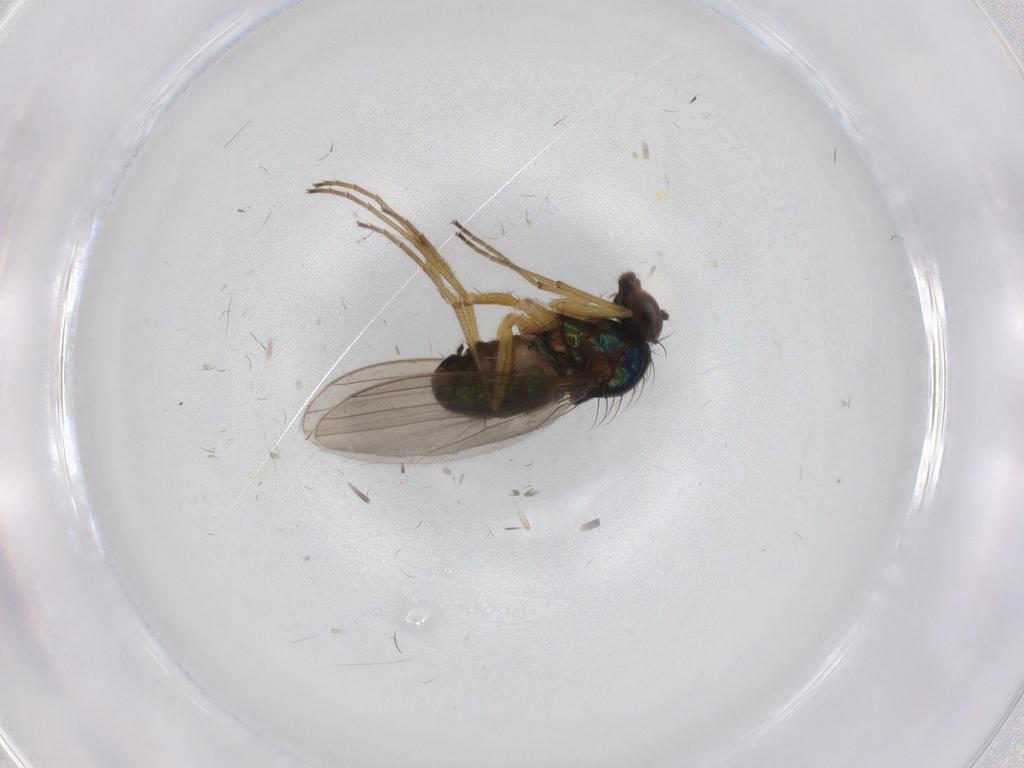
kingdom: Animalia
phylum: Arthropoda
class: Insecta
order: Diptera
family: Dolichopodidae
